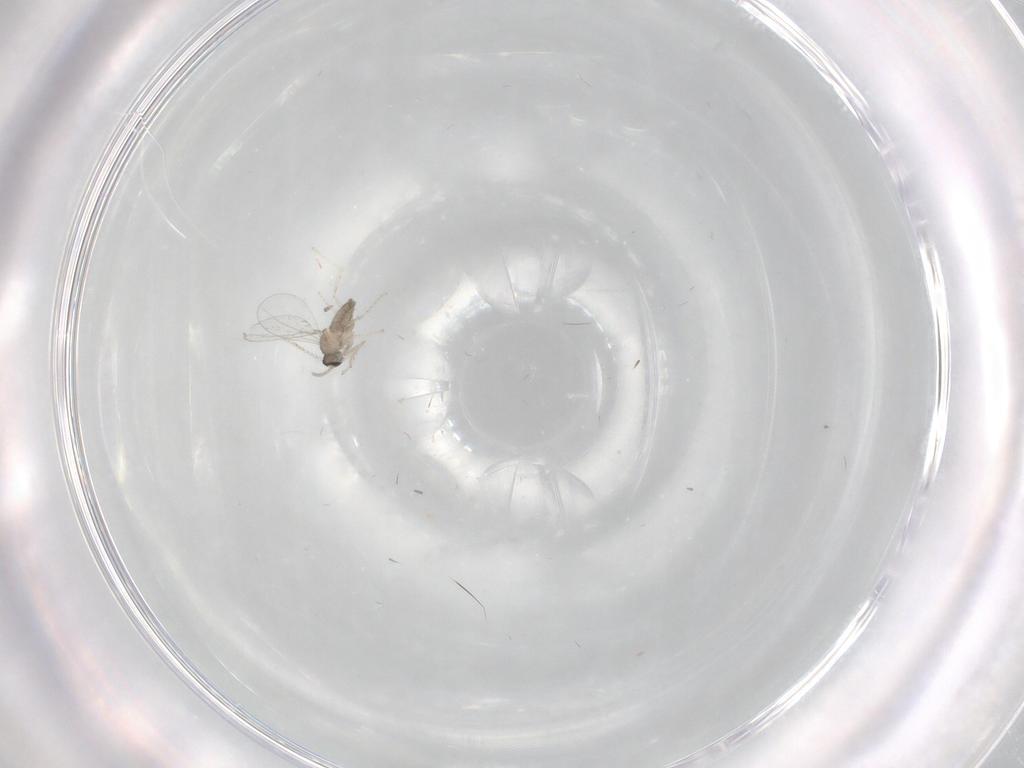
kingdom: Animalia
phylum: Arthropoda
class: Insecta
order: Diptera
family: Cecidomyiidae
